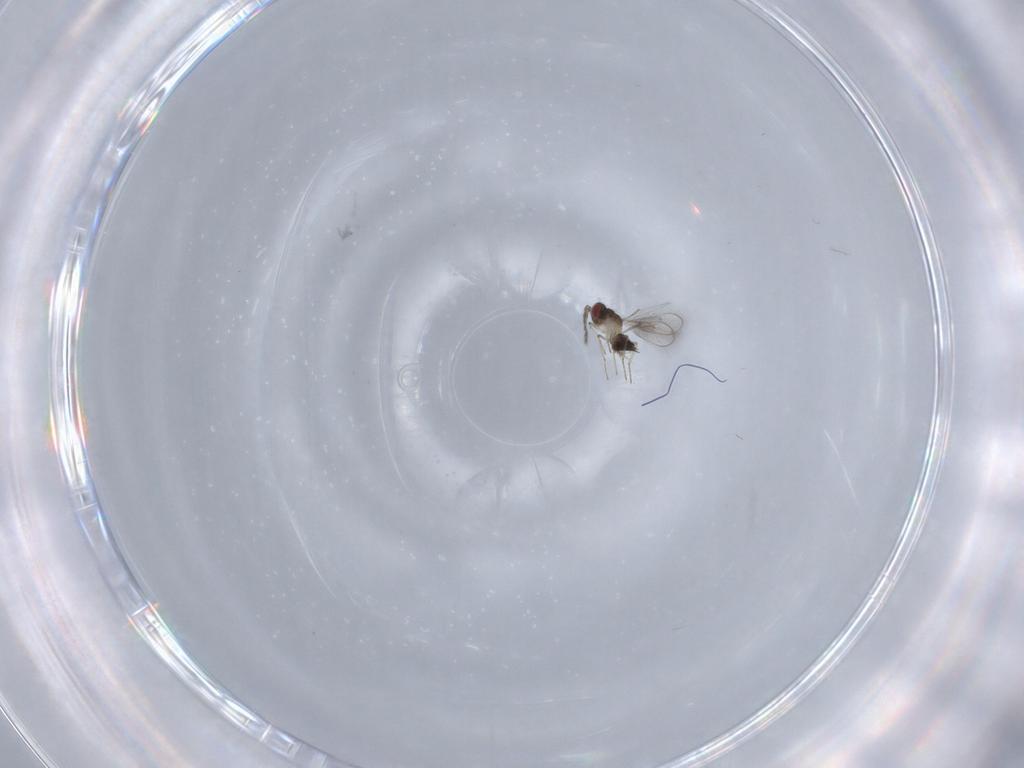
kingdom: Animalia
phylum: Arthropoda
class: Insecta
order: Hymenoptera
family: Eulophidae
